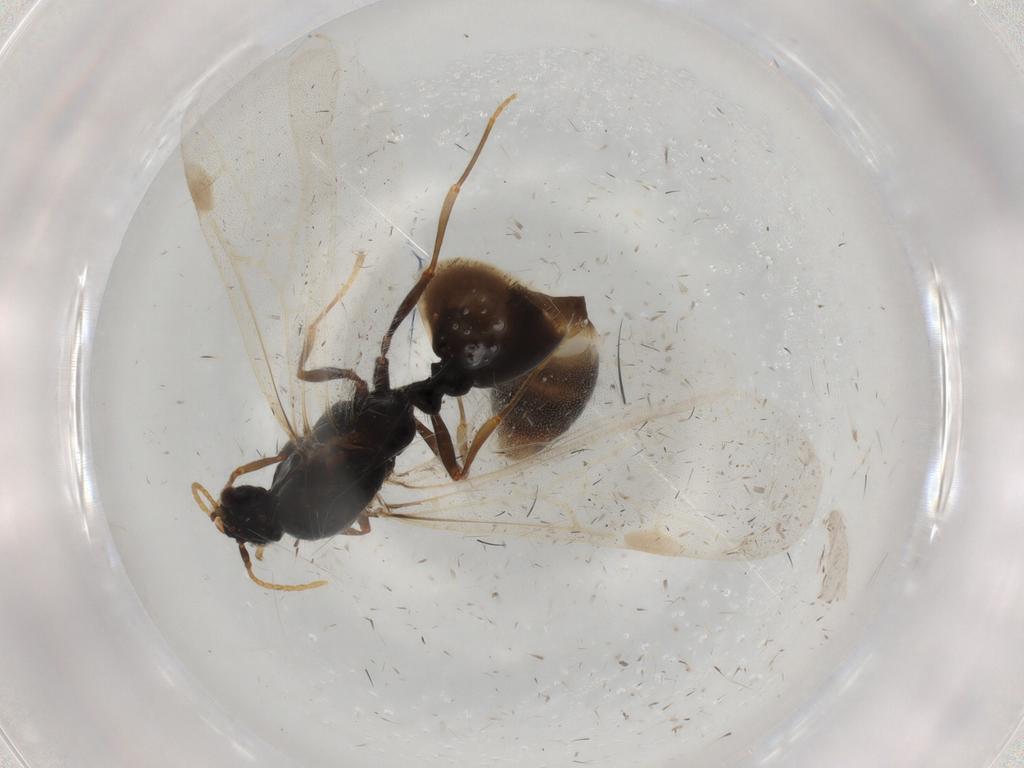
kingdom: Animalia
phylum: Arthropoda
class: Insecta
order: Hymenoptera
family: Formicidae
